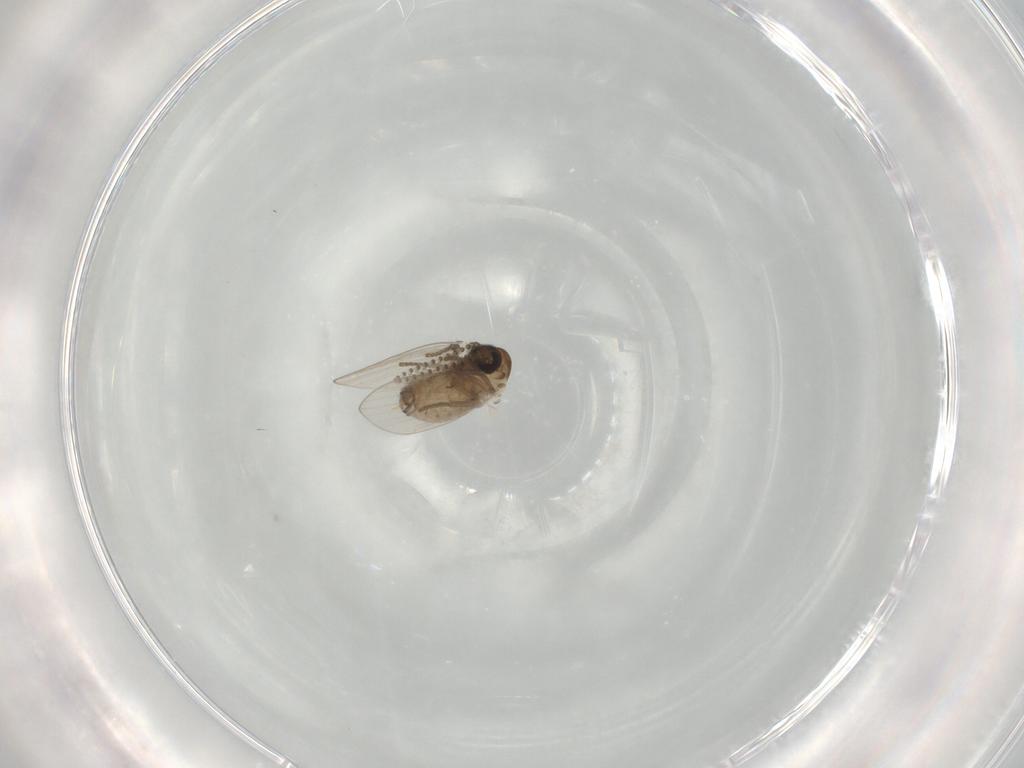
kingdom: Animalia
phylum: Arthropoda
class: Insecta
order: Diptera
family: Psychodidae
